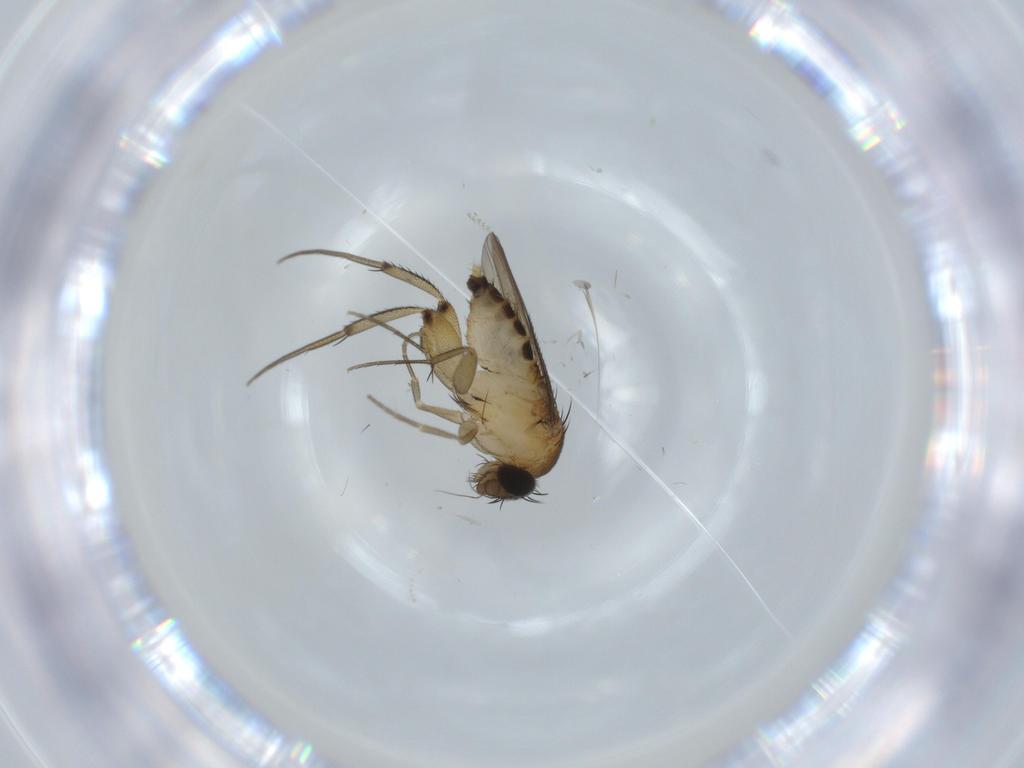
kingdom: Animalia
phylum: Arthropoda
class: Insecta
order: Diptera
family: Phoridae
